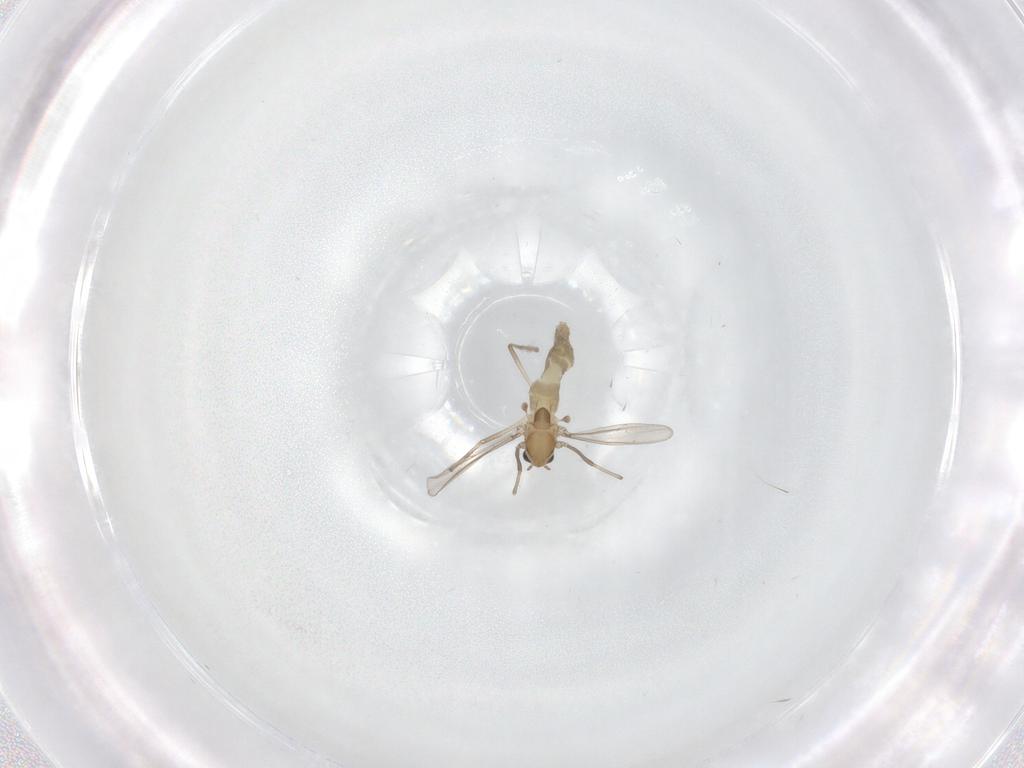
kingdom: Animalia
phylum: Arthropoda
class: Insecta
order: Diptera
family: Chironomidae
